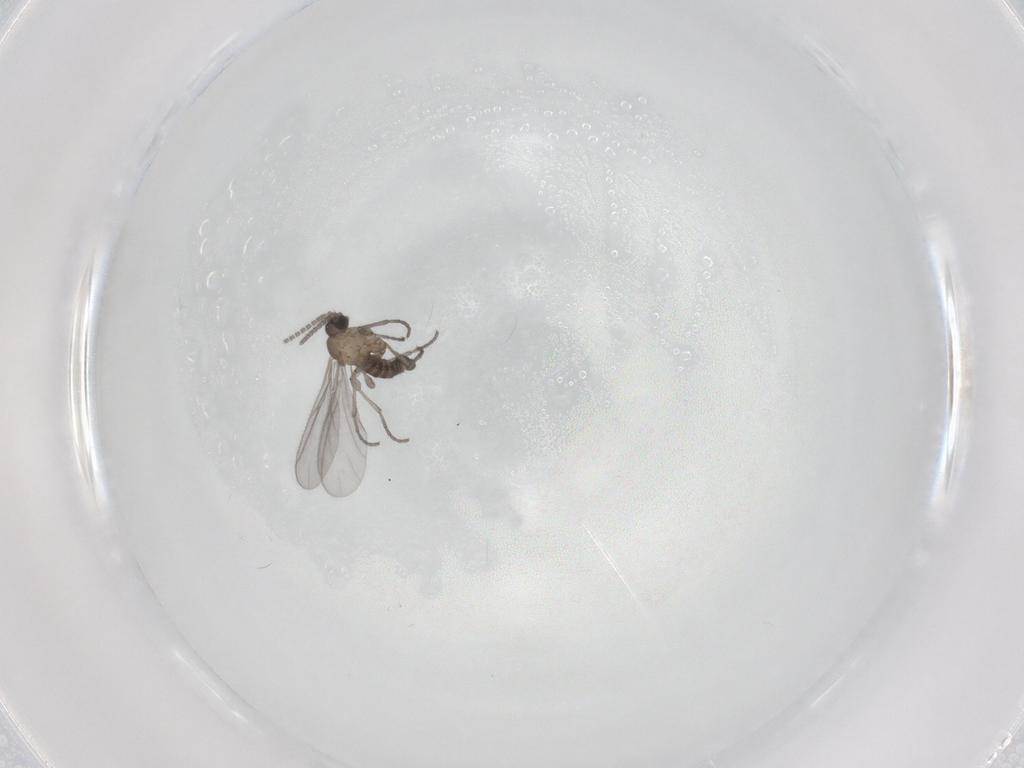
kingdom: Animalia
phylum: Arthropoda
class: Insecta
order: Diptera
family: Sciaridae
